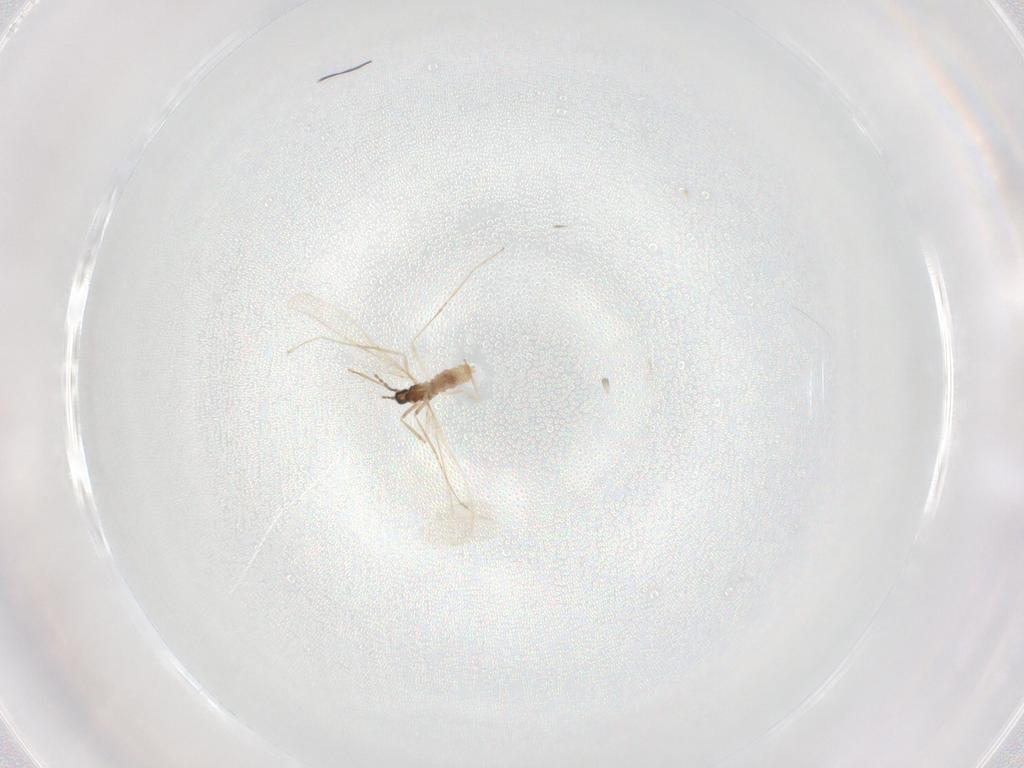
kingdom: Animalia
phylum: Arthropoda
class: Insecta
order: Diptera
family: Cecidomyiidae
